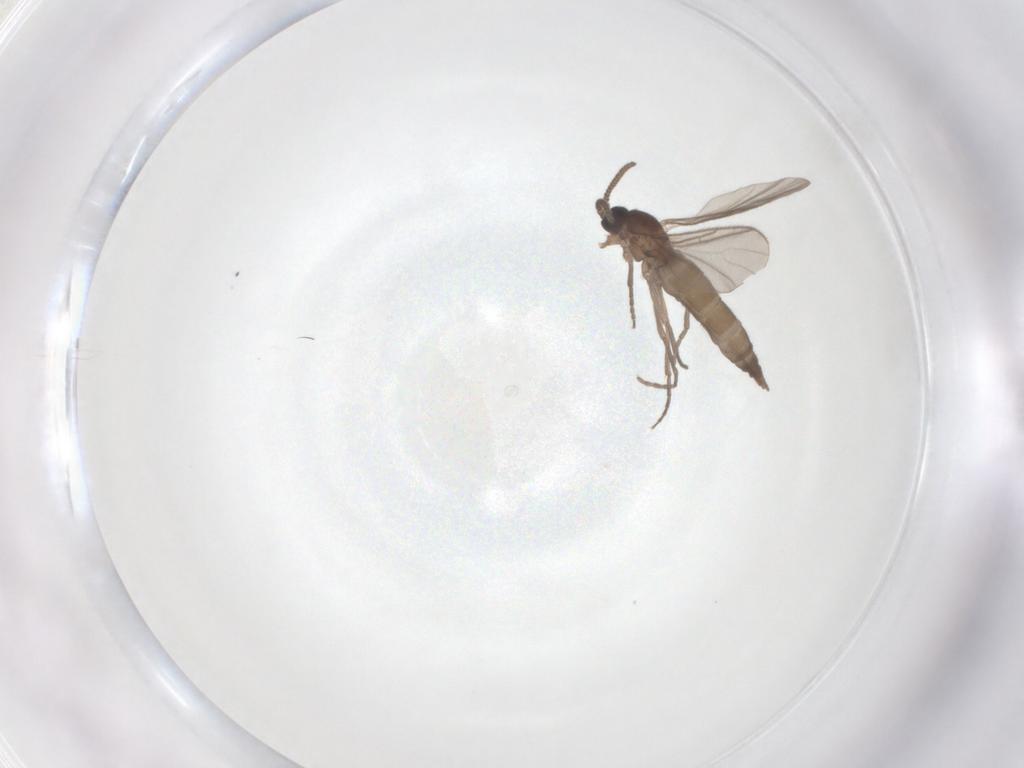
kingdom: Animalia
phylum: Arthropoda
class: Insecta
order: Diptera
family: Sciaridae
